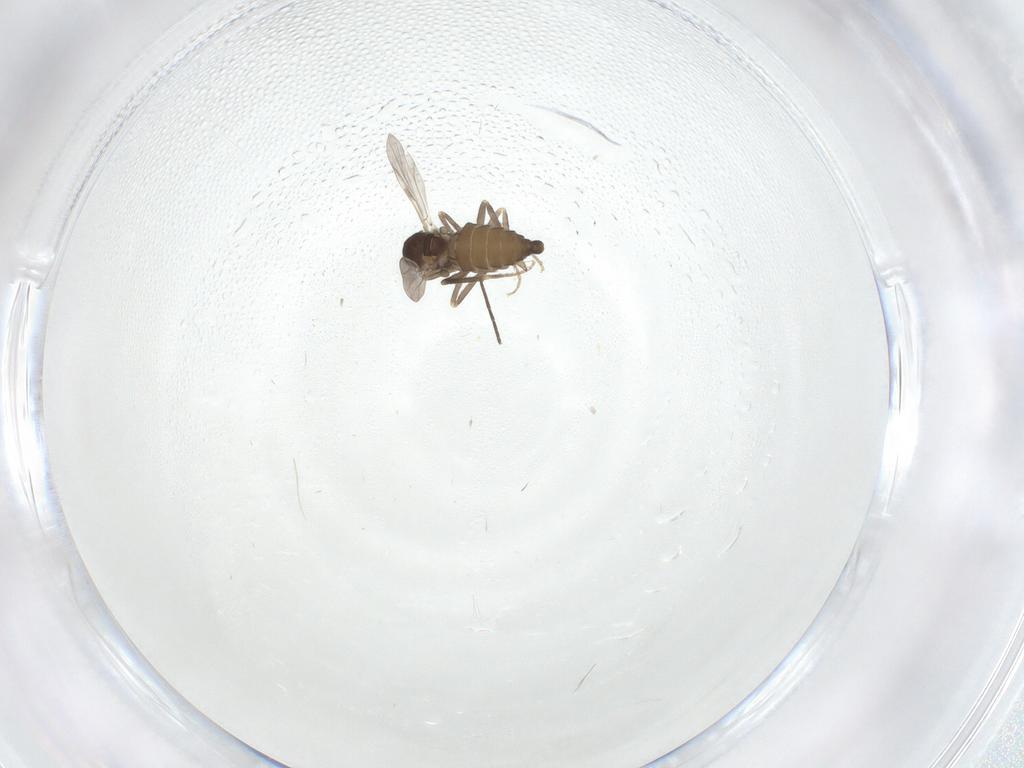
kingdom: Animalia
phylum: Arthropoda
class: Insecta
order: Diptera
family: Ceratopogonidae
